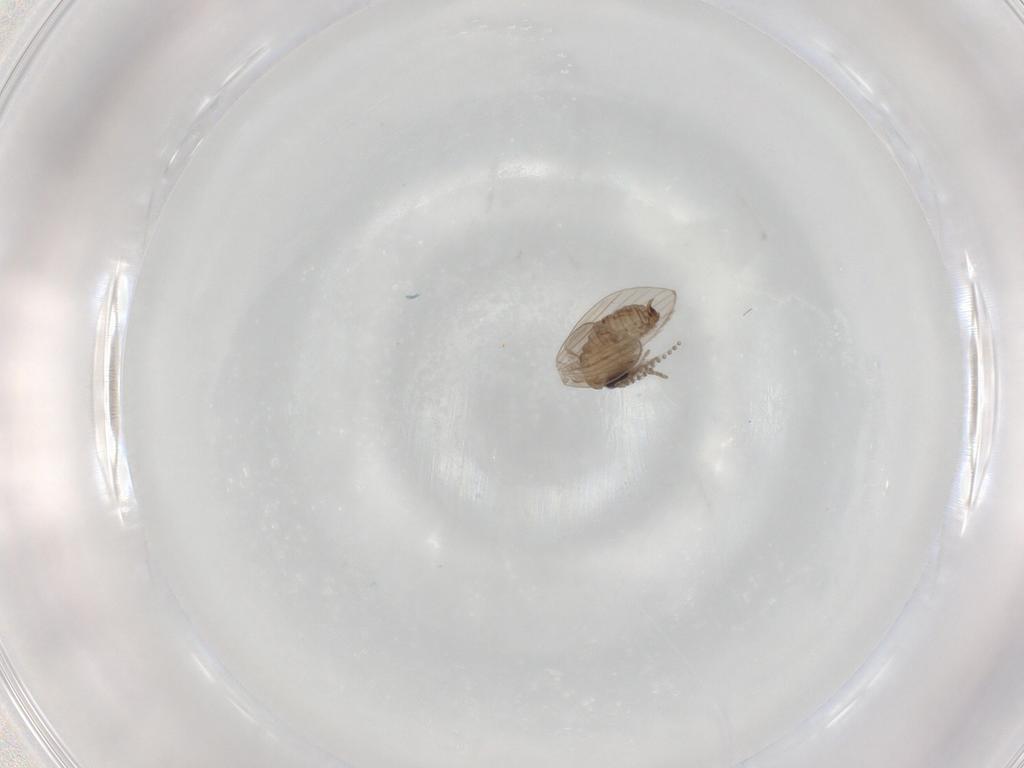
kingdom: Animalia
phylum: Arthropoda
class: Insecta
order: Diptera
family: Psychodidae
